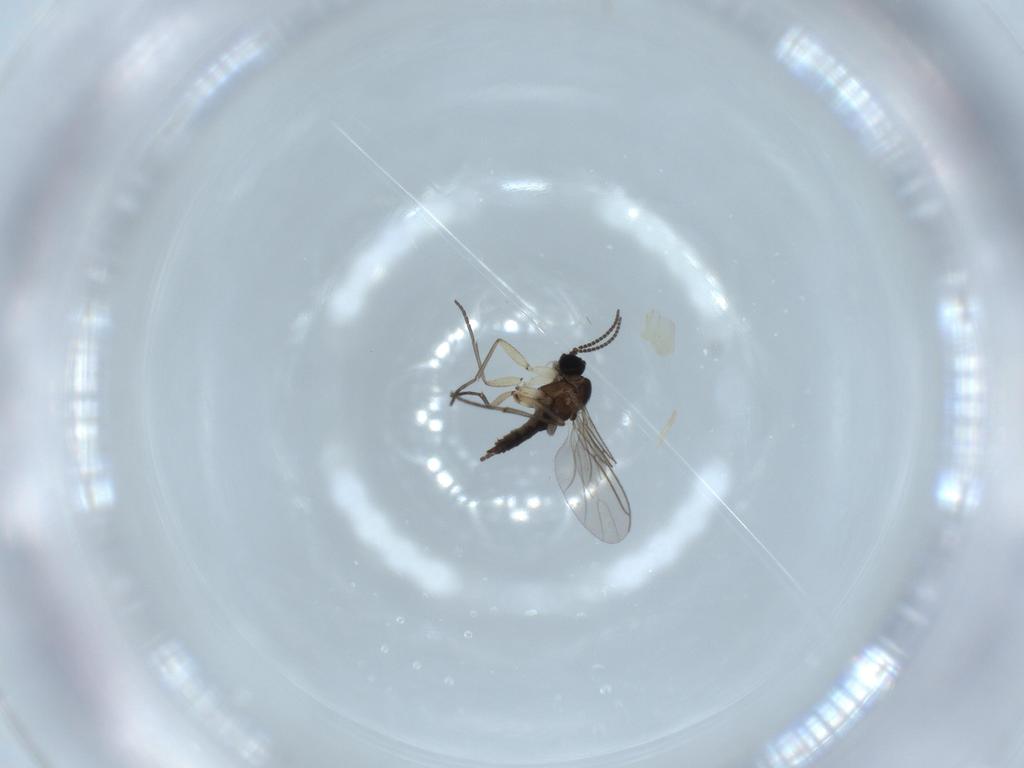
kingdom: Animalia
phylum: Arthropoda
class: Insecta
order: Diptera
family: Sciaridae
